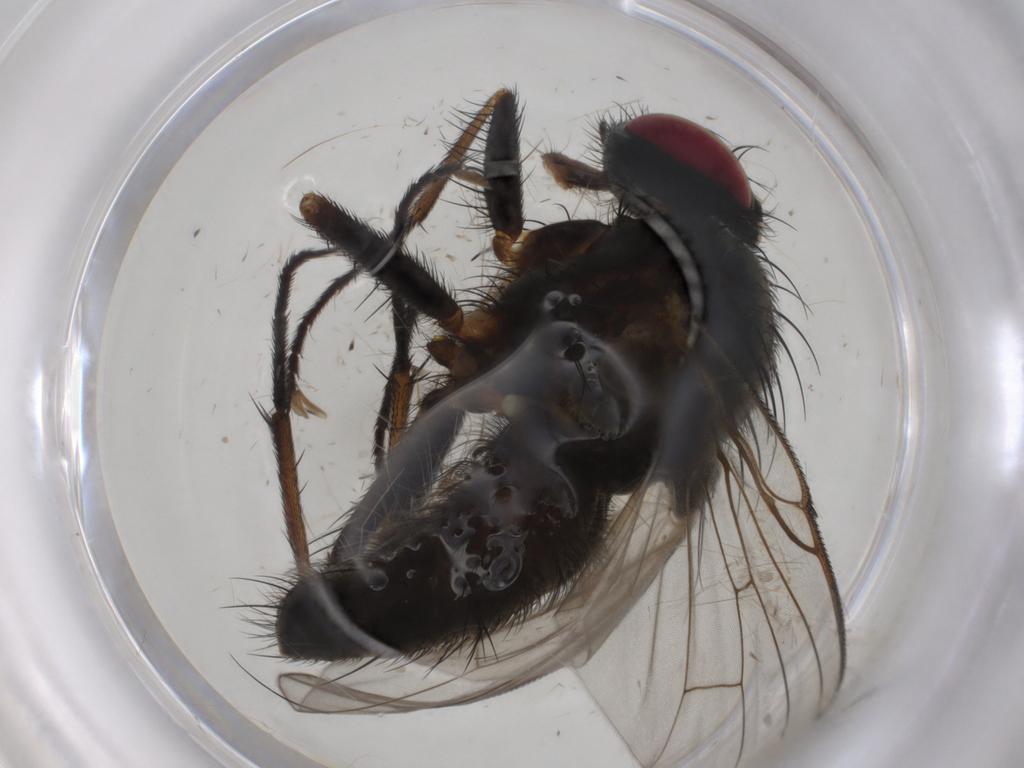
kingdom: Animalia
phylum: Arthropoda
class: Insecta
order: Diptera
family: Muscidae
